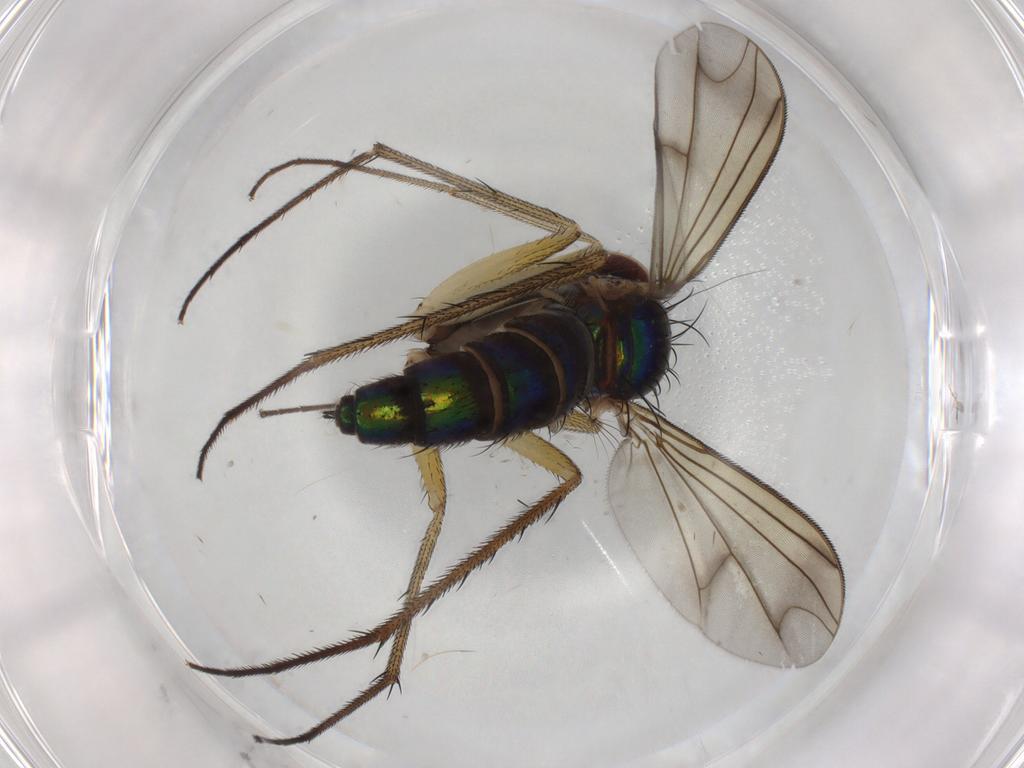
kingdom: Animalia
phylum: Arthropoda
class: Insecta
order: Diptera
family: Dolichopodidae
